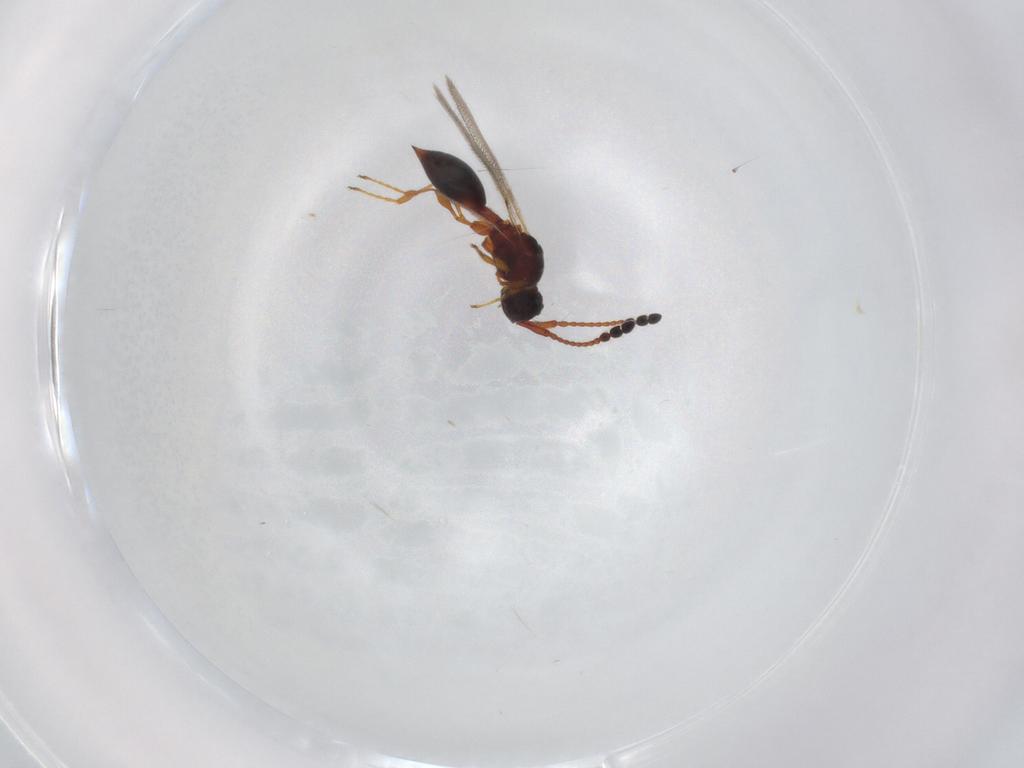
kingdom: Animalia
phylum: Arthropoda
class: Insecta
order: Hymenoptera
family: Diapriidae
